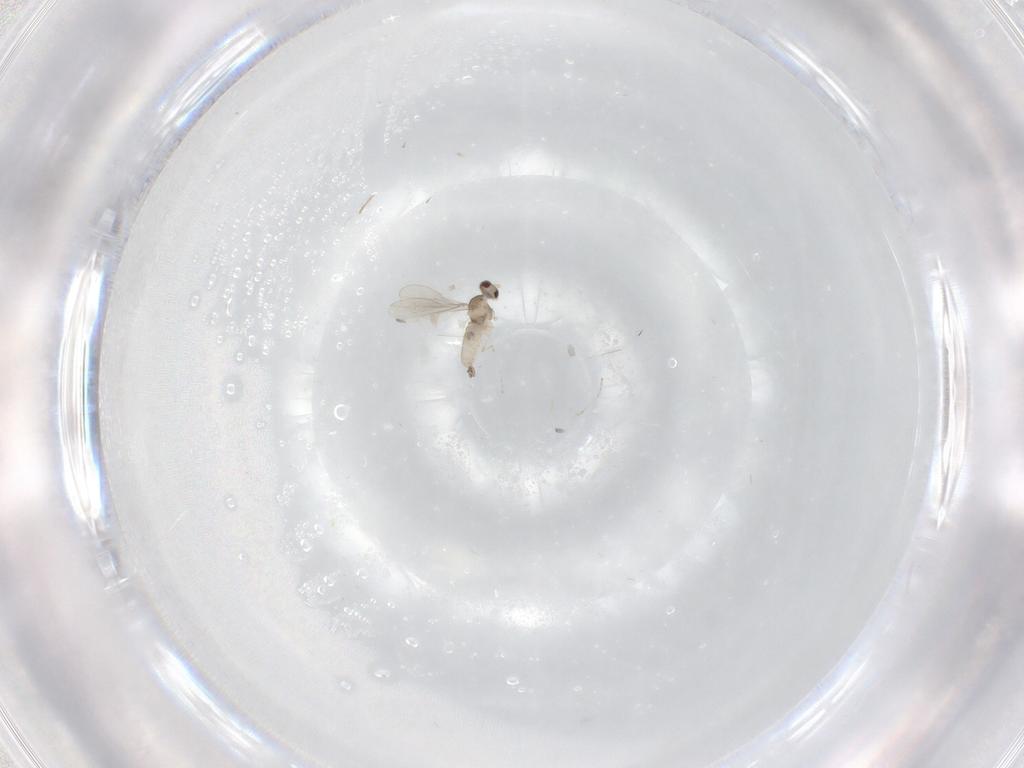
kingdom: Animalia
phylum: Arthropoda
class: Insecta
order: Diptera
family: Cecidomyiidae
